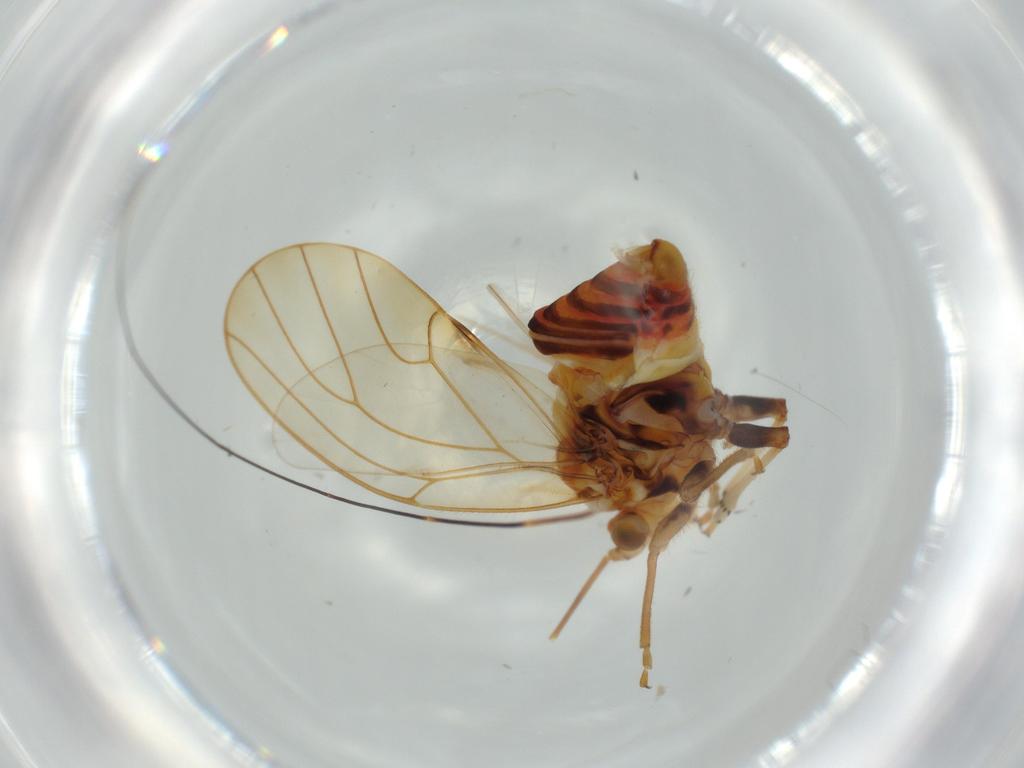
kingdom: Animalia
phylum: Arthropoda
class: Insecta
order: Hemiptera
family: Psyllidae
